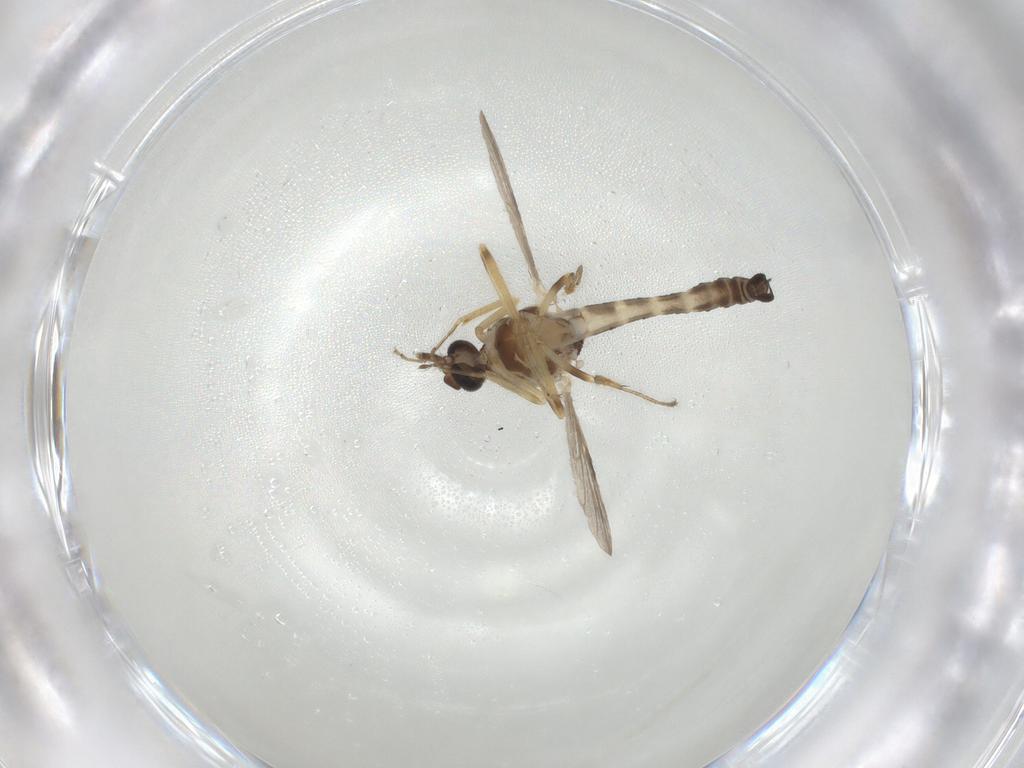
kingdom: Animalia
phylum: Arthropoda
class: Insecta
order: Diptera
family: Ceratopogonidae
